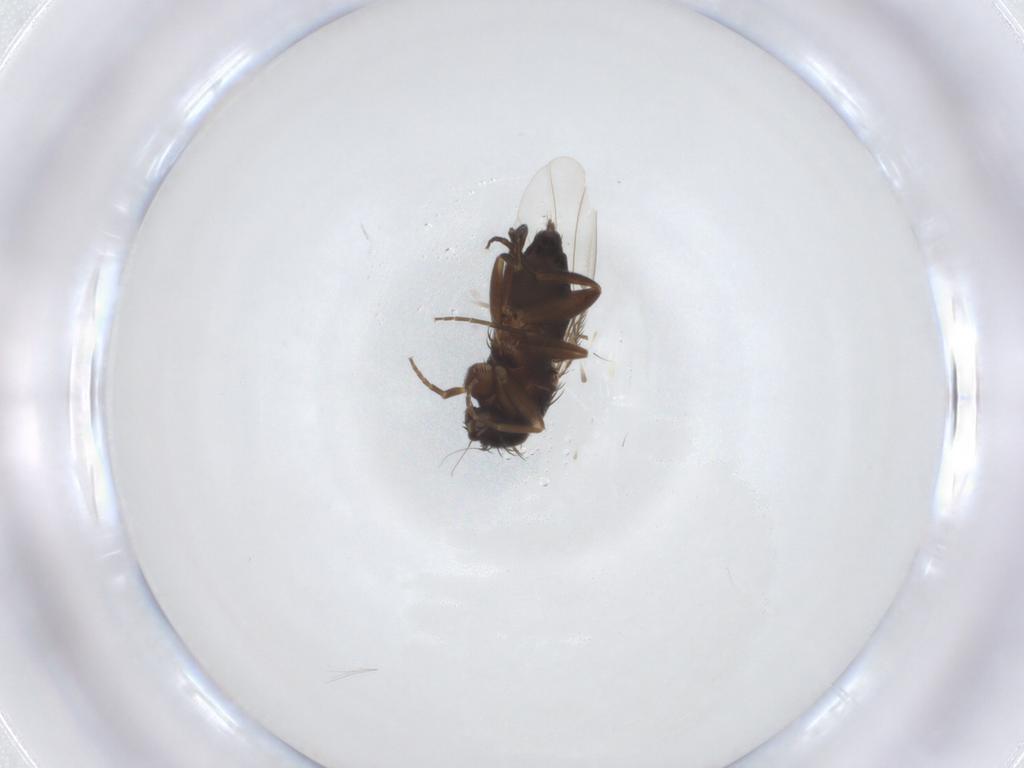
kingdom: Animalia
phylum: Arthropoda
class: Insecta
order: Diptera
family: Phoridae
